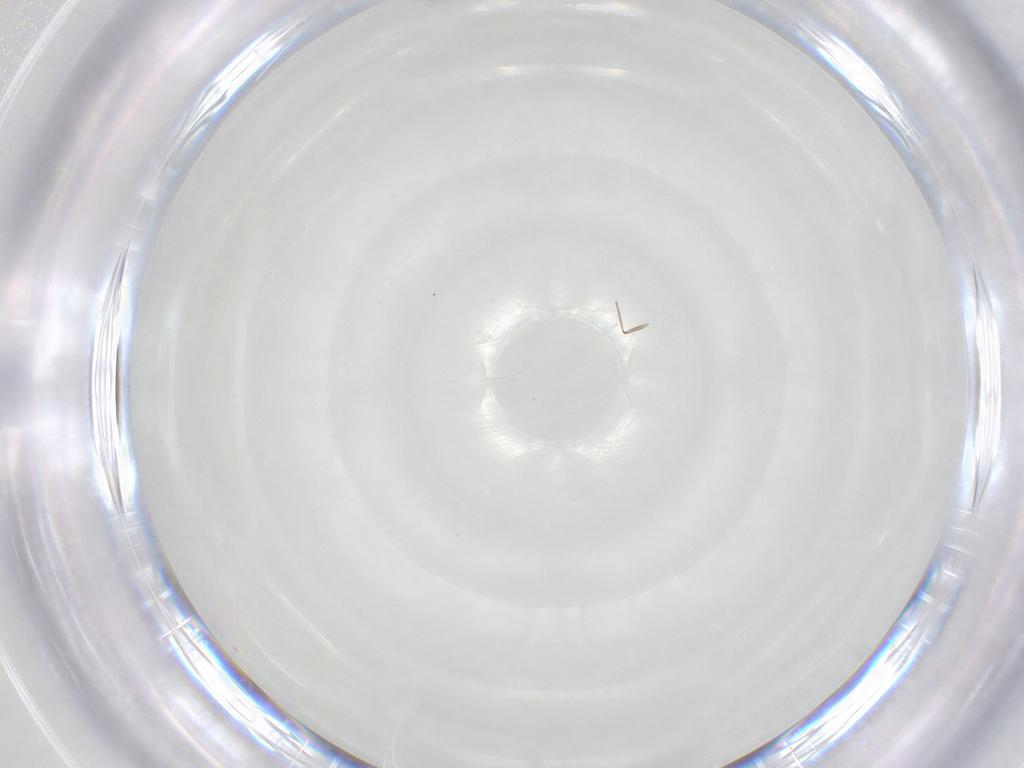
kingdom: Animalia
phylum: Arthropoda
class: Insecta
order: Diptera
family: Chironomidae
